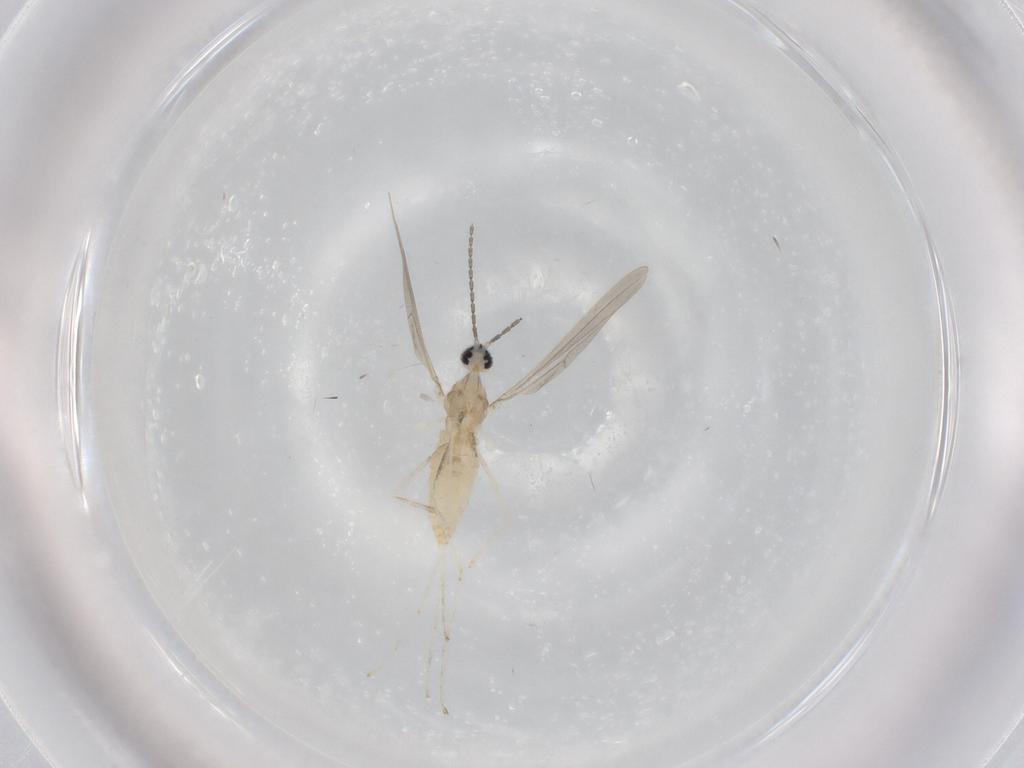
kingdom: Animalia
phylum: Arthropoda
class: Insecta
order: Diptera
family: Cecidomyiidae
